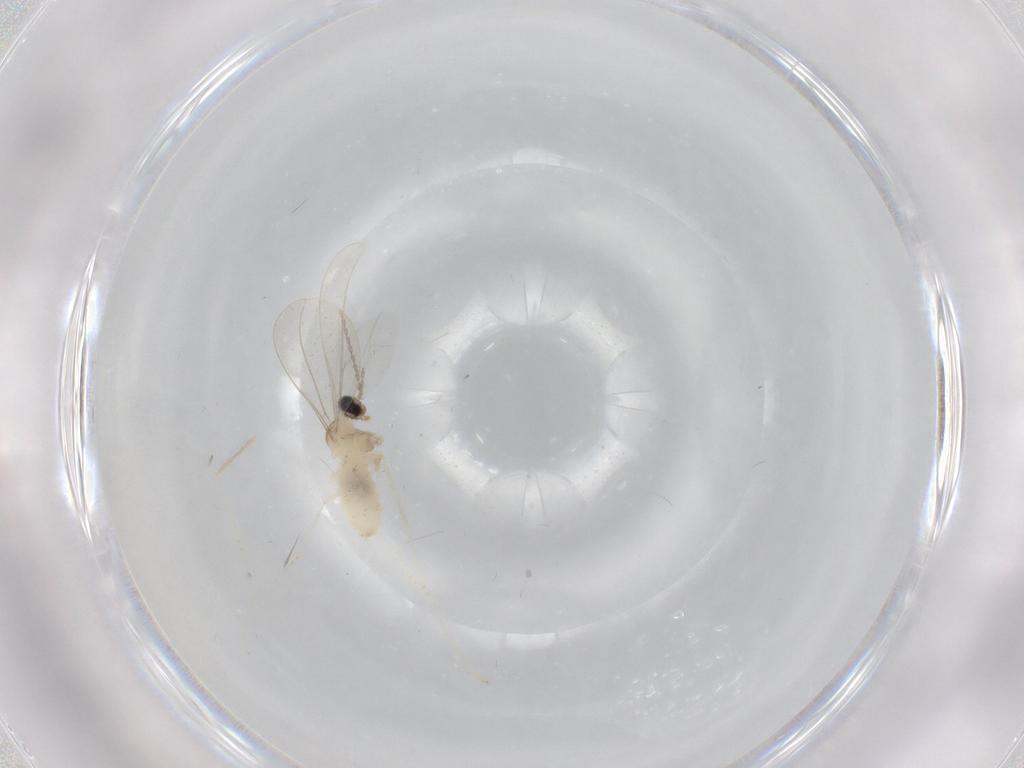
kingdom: Animalia
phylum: Arthropoda
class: Insecta
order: Diptera
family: Cecidomyiidae
